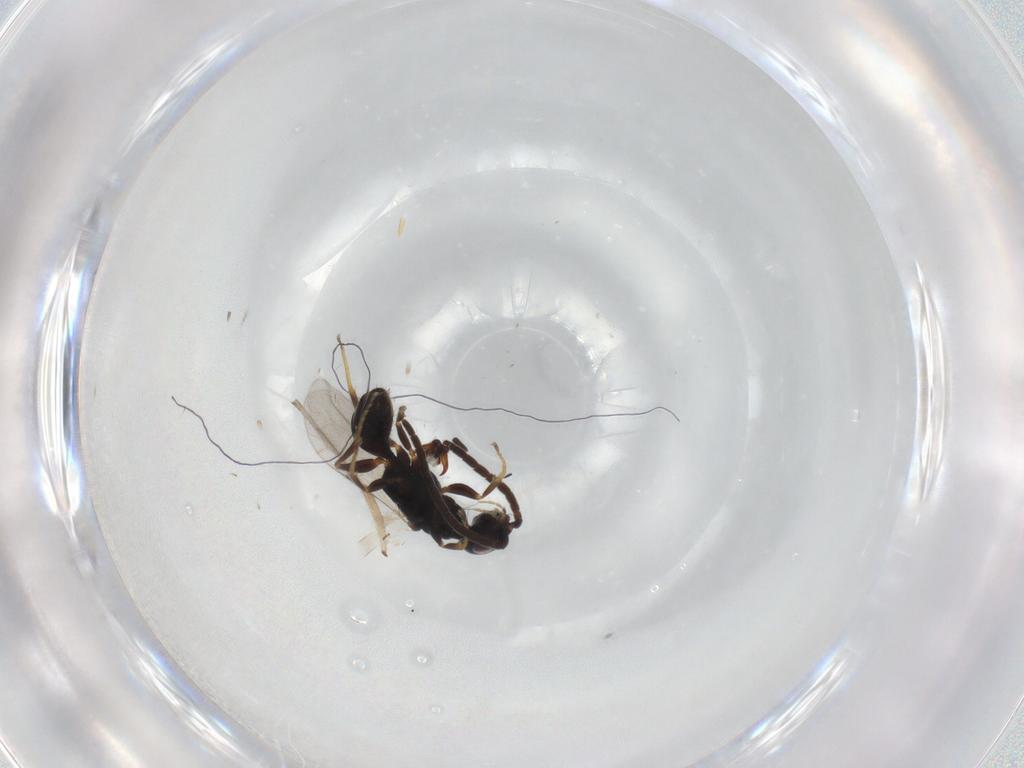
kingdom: Animalia
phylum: Arthropoda
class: Insecta
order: Hymenoptera
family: Bethylidae
